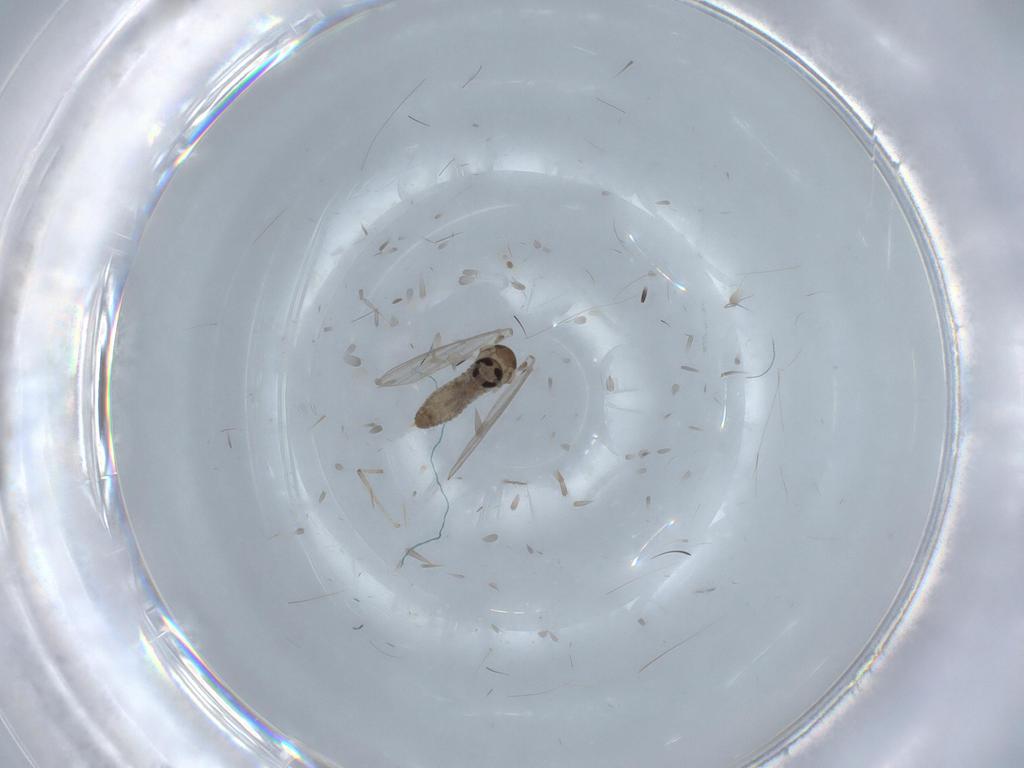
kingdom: Animalia
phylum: Arthropoda
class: Insecta
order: Diptera
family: Psychodidae
